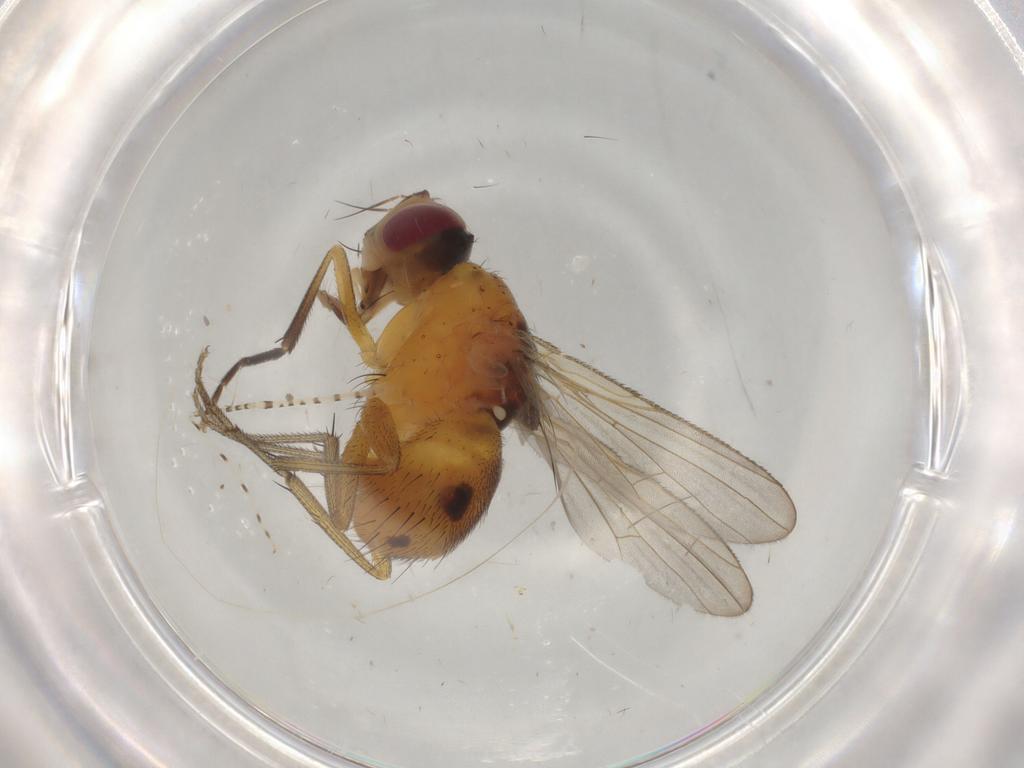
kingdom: Animalia
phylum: Arthropoda
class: Insecta
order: Diptera
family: Muscidae
